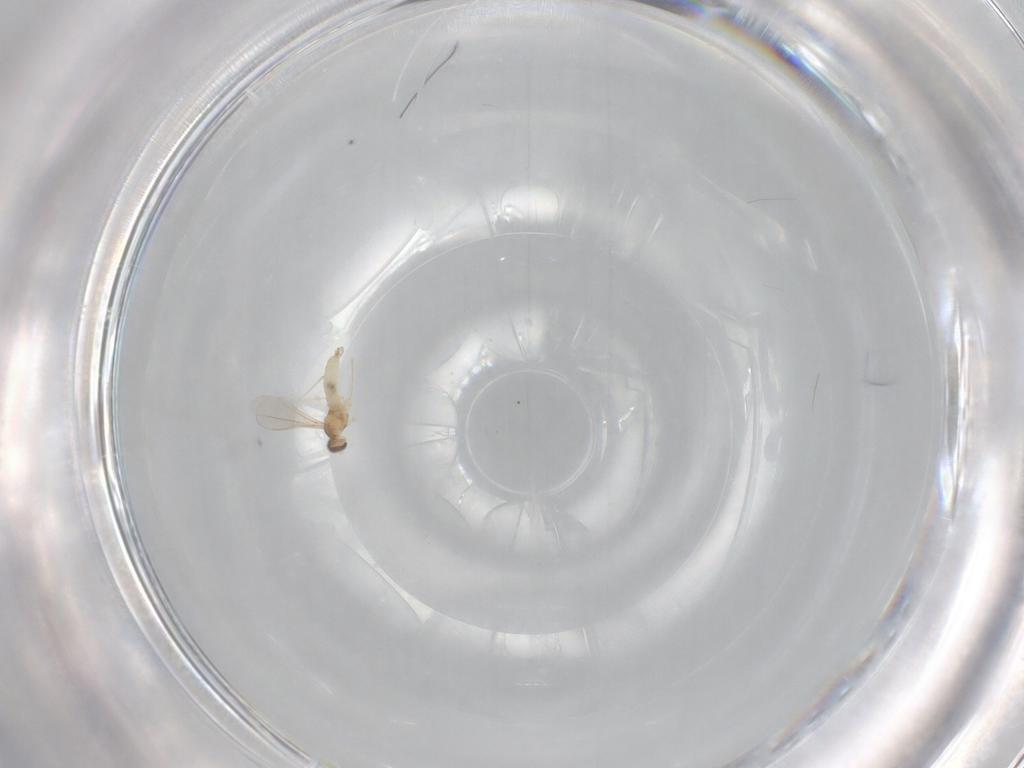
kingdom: Animalia
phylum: Arthropoda
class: Insecta
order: Diptera
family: Cecidomyiidae
